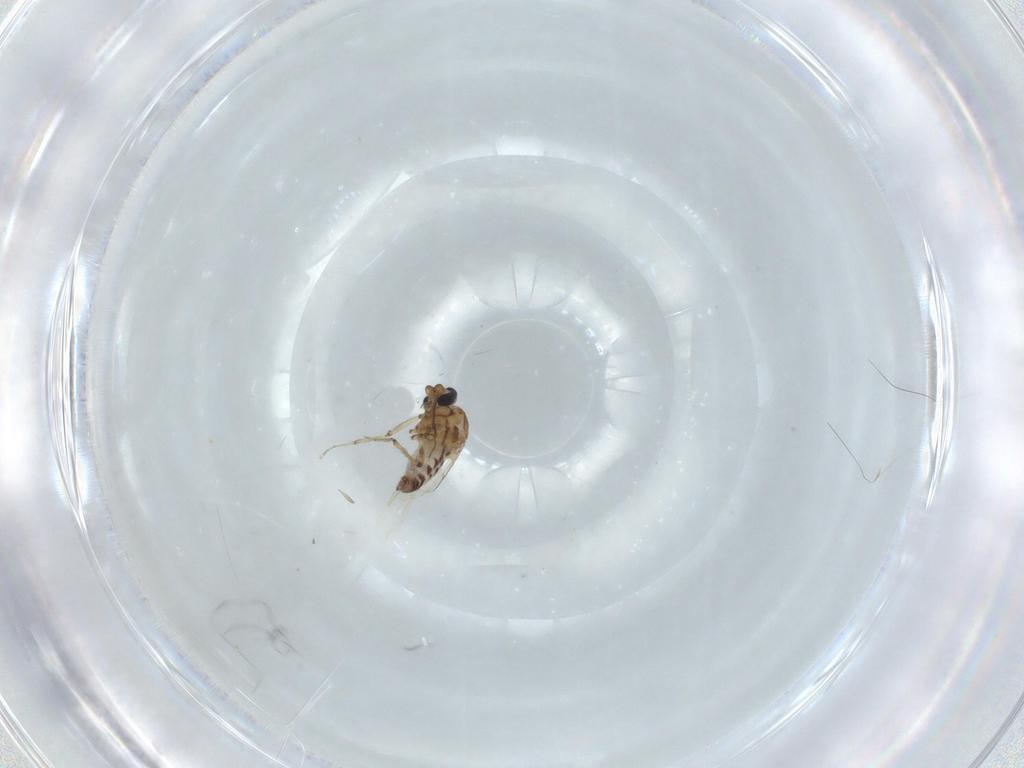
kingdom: Animalia
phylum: Arthropoda
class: Insecta
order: Diptera
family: Ceratopogonidae
